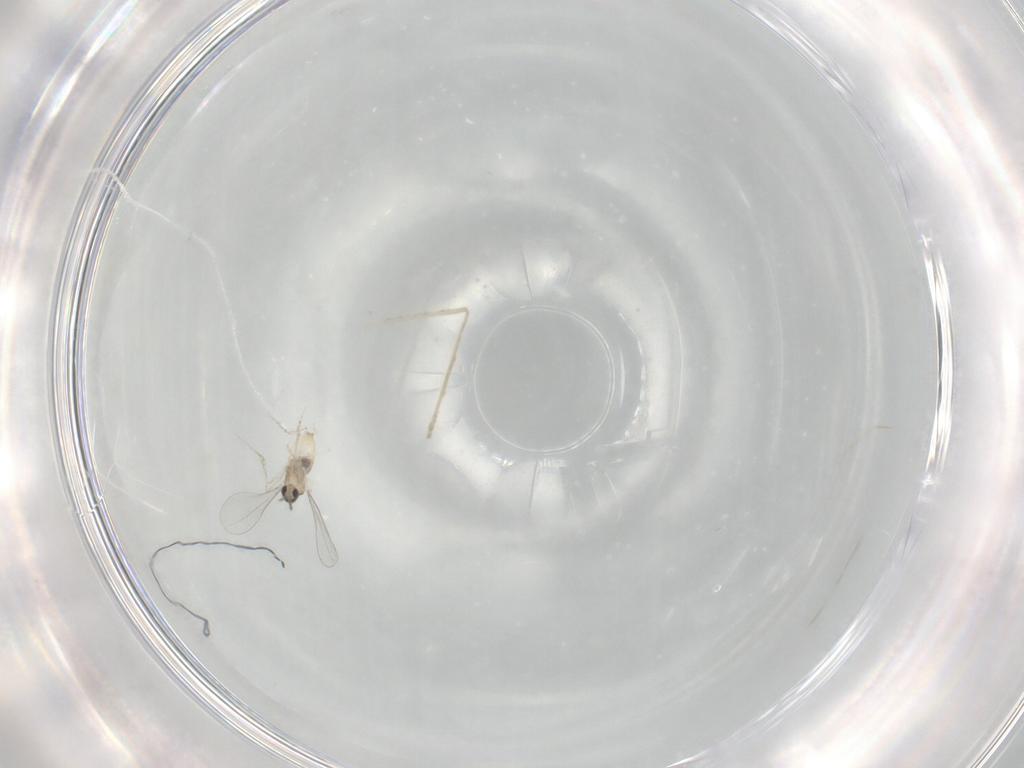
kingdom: Animalia
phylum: Arthropoda
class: Insecta
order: Diptera
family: Cecidomyiidae
